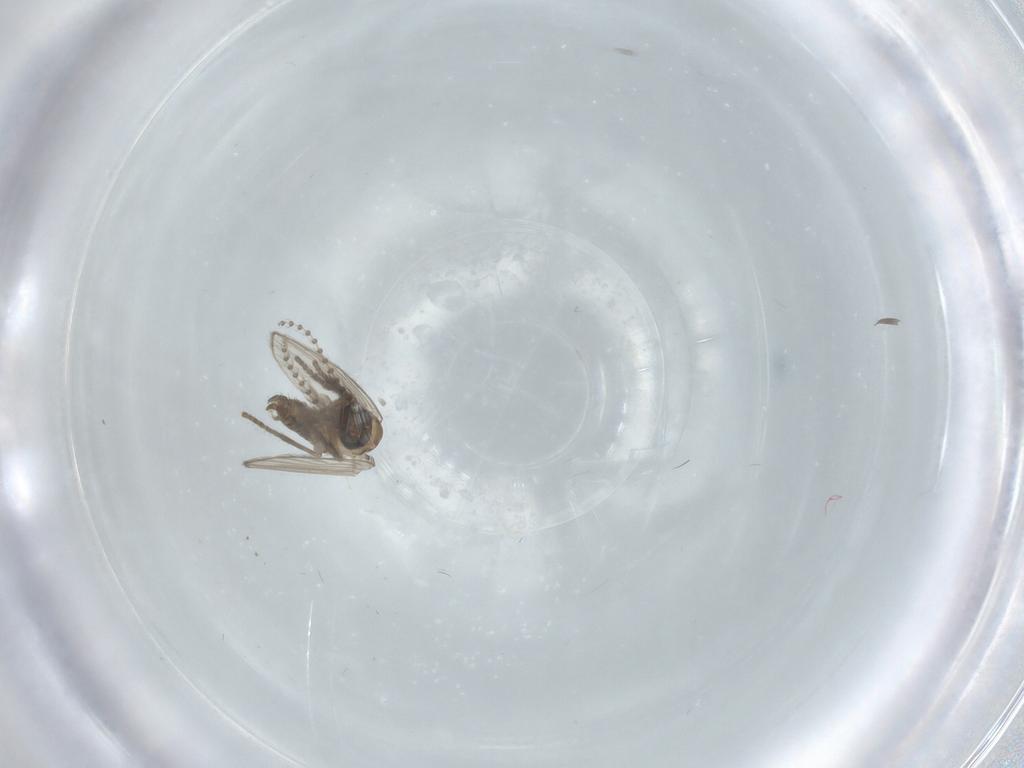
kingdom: Animalia
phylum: Arthropoda
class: Insecta
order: Diptera
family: Psychodidae
